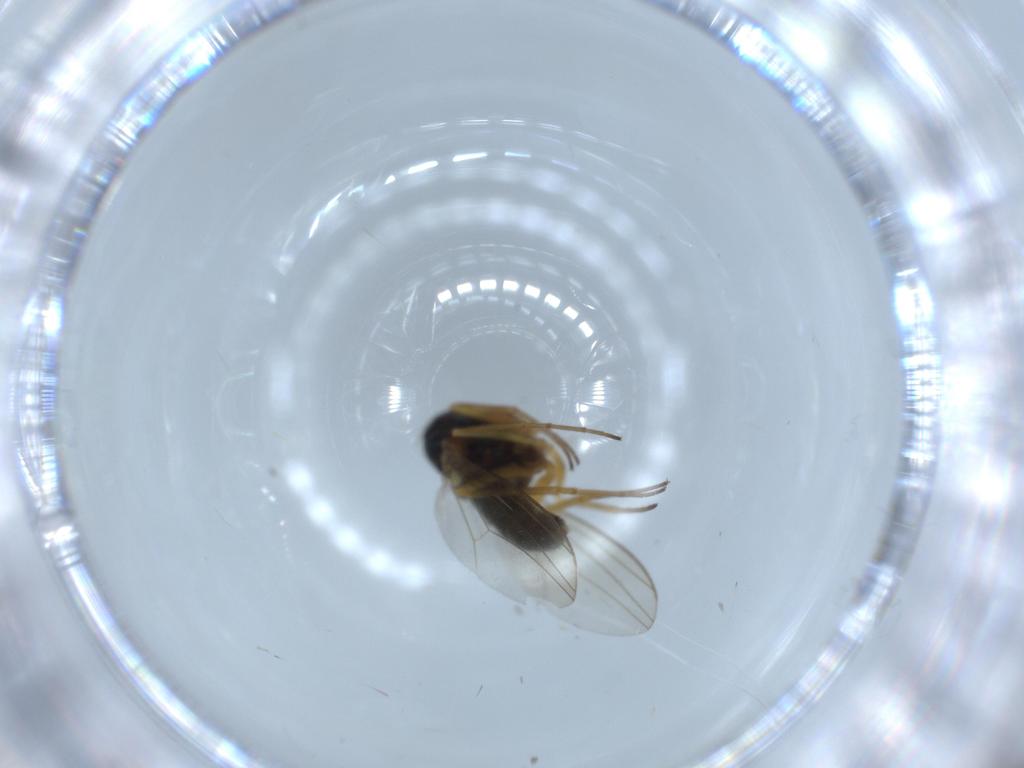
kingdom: Animalia
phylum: Arthropoda
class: Insecta
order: Diptera
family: Dolichopodidae
